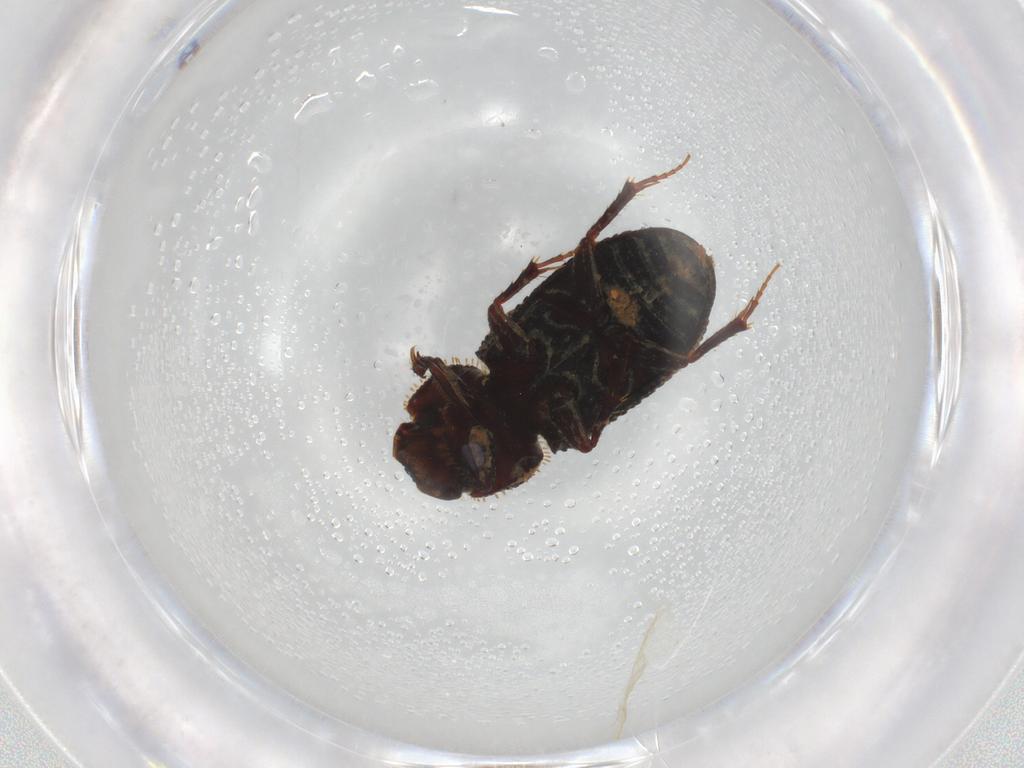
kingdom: Animalia
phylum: Arthropoda
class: Insecta
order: Coleoptera
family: Scarabaeidae
